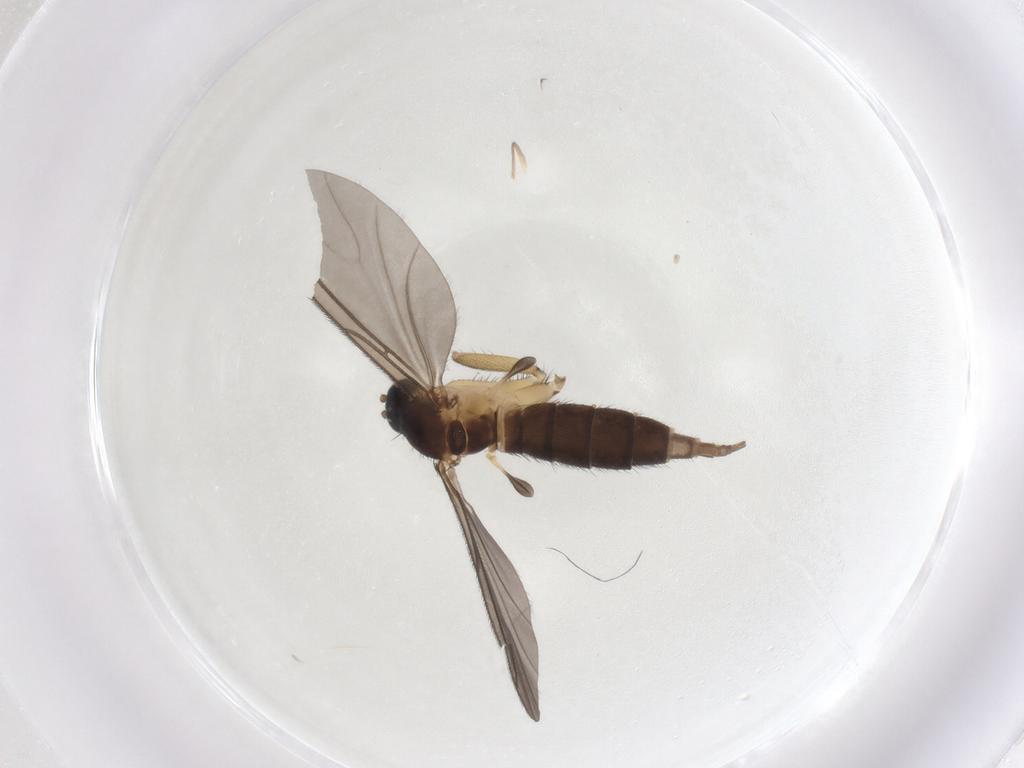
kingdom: Animalia
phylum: Arthropoda
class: Insecta
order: Diptera
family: Sciaridae
